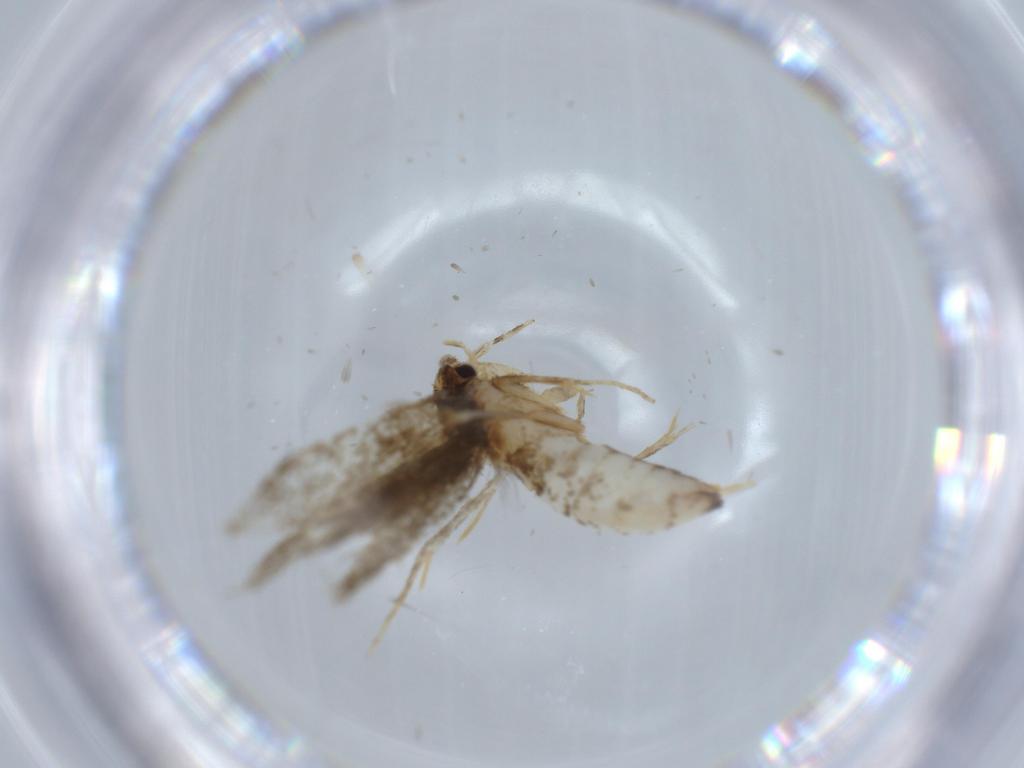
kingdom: Animalia
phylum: Arthropoda
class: Insecta
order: Lepidoptera
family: Tineidae
